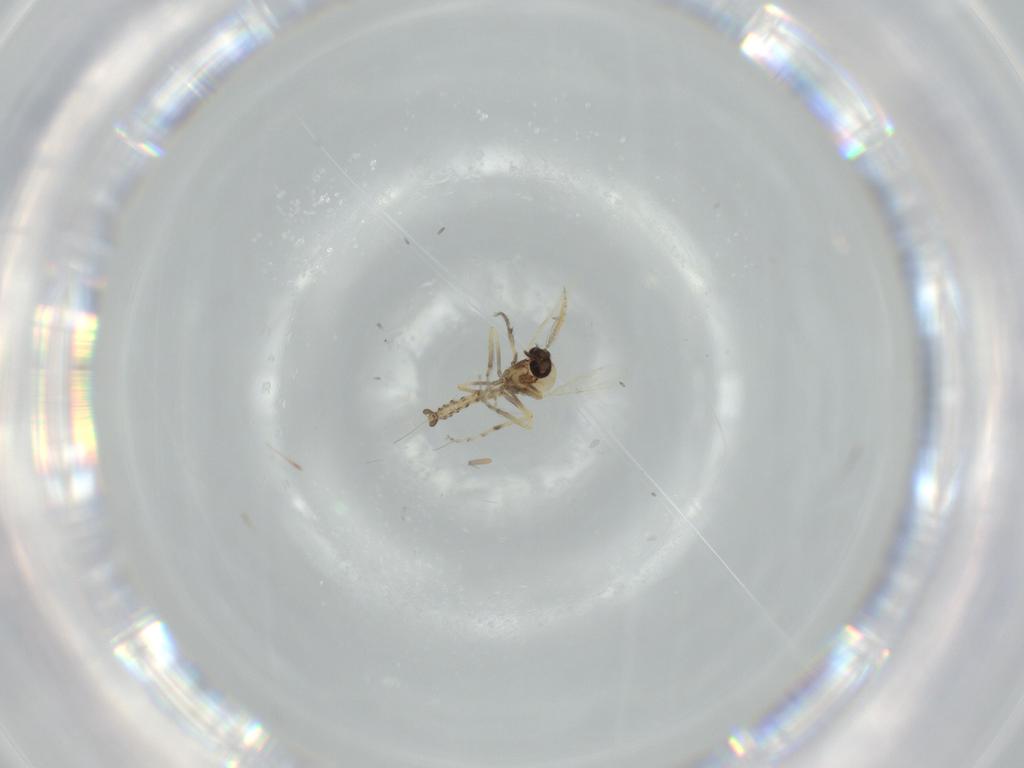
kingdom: Animalia
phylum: Arthropoda
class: Insecta
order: Diptera
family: Ceratopogonidae
